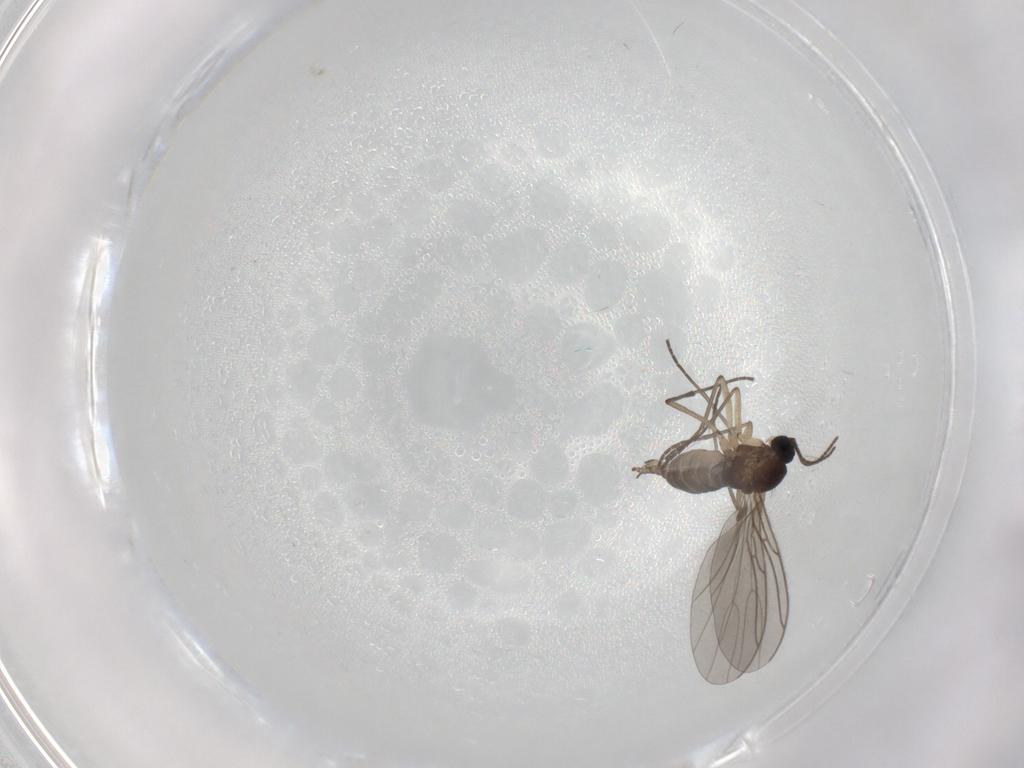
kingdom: Animalia
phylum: Arthropoda
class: Insecta
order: Diptera
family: Sciaridae
